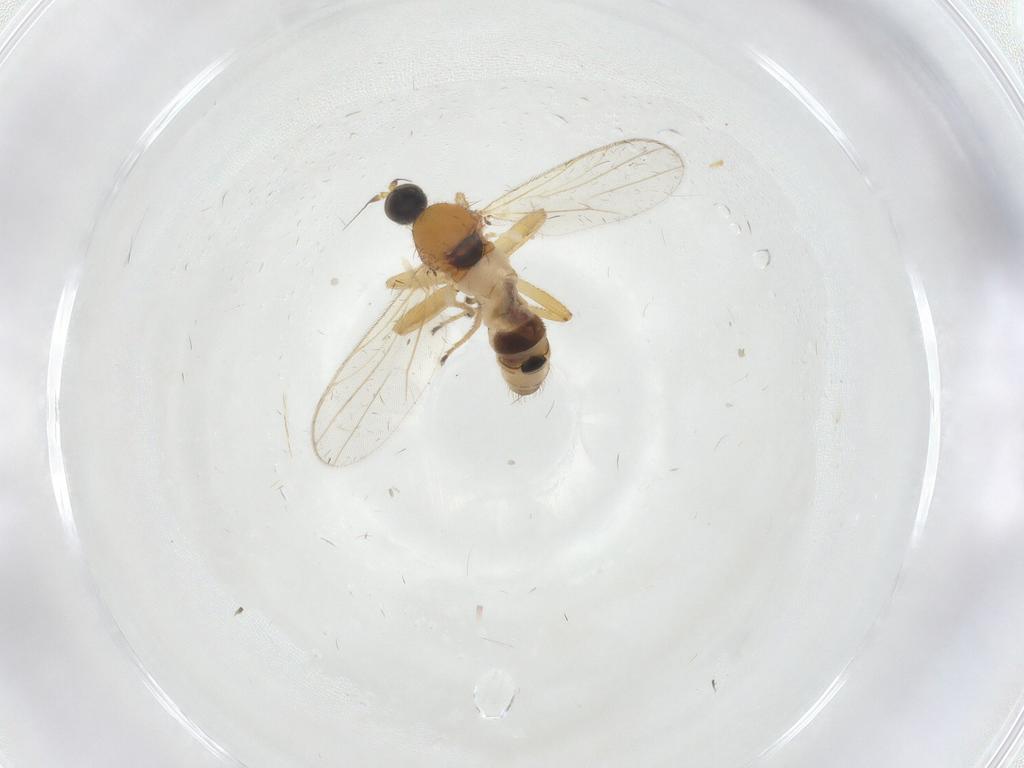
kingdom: Animalia
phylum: Arthropoda
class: Insecta
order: Diptera
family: Hybotidae
